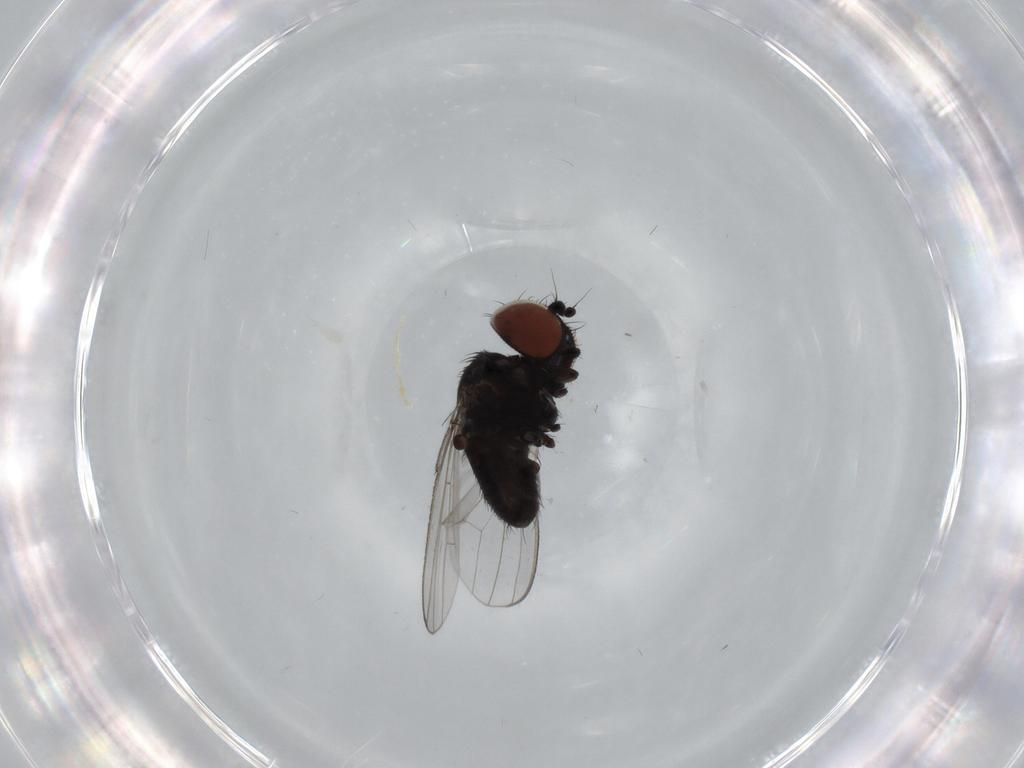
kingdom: Animalia
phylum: Arthropoda
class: Insecta
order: Diptera
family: Milichiidae
